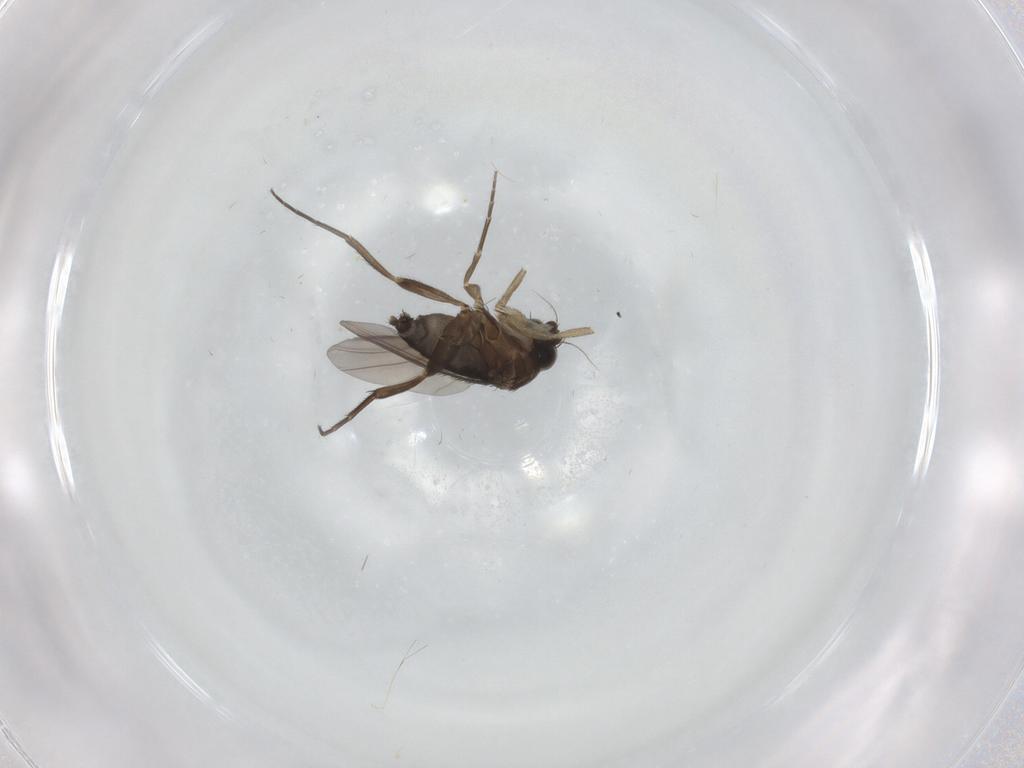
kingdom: Animalia
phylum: Arthropoda
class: Insecta
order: Diptera
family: Phoridae
